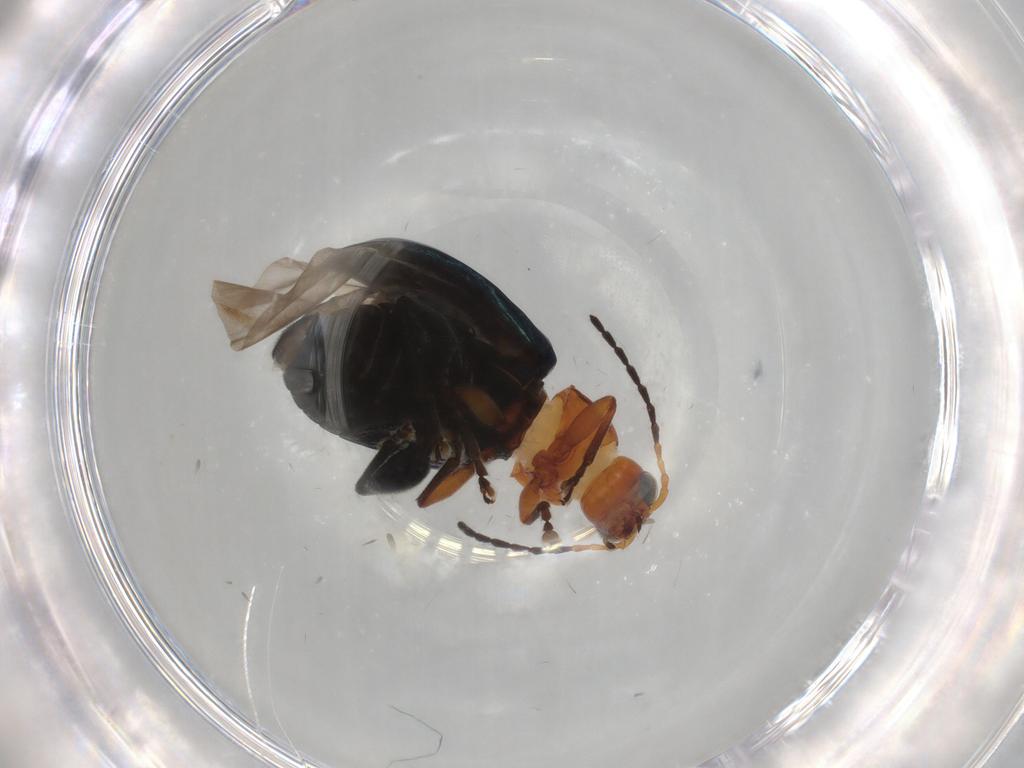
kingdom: Animalia
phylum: Arthropoda
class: Insecta
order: Coleoptera
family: Chrysomelidae
